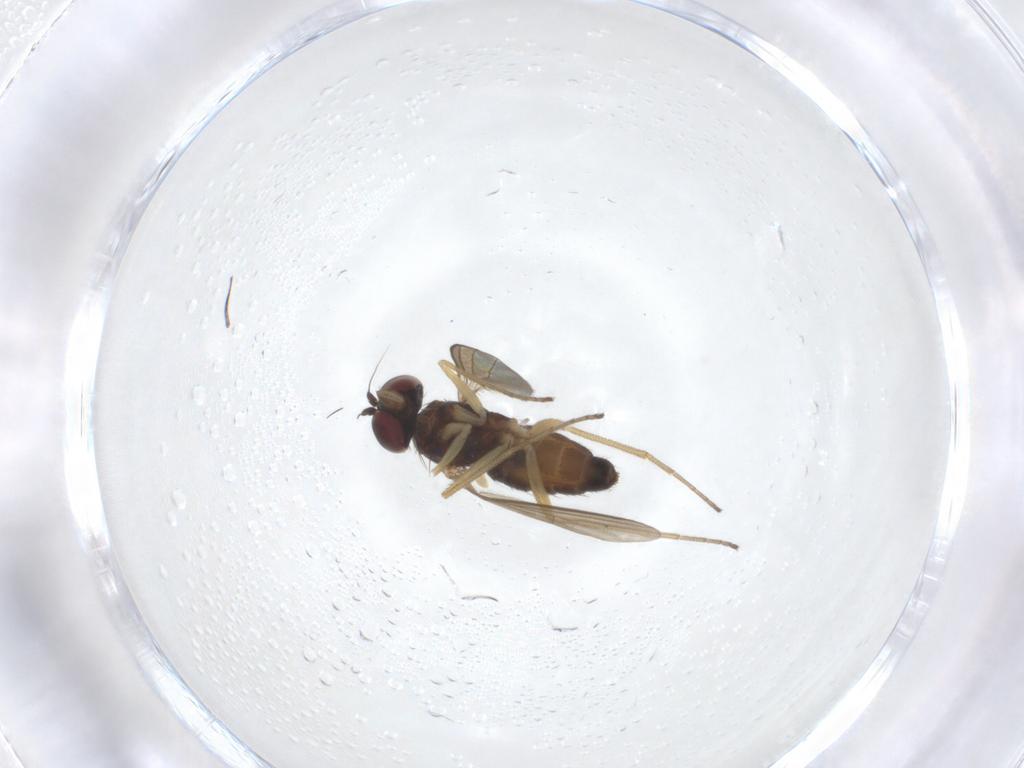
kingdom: Animalia
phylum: Arthropoda
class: Insecta
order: Diptera
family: Dolichopodidae
